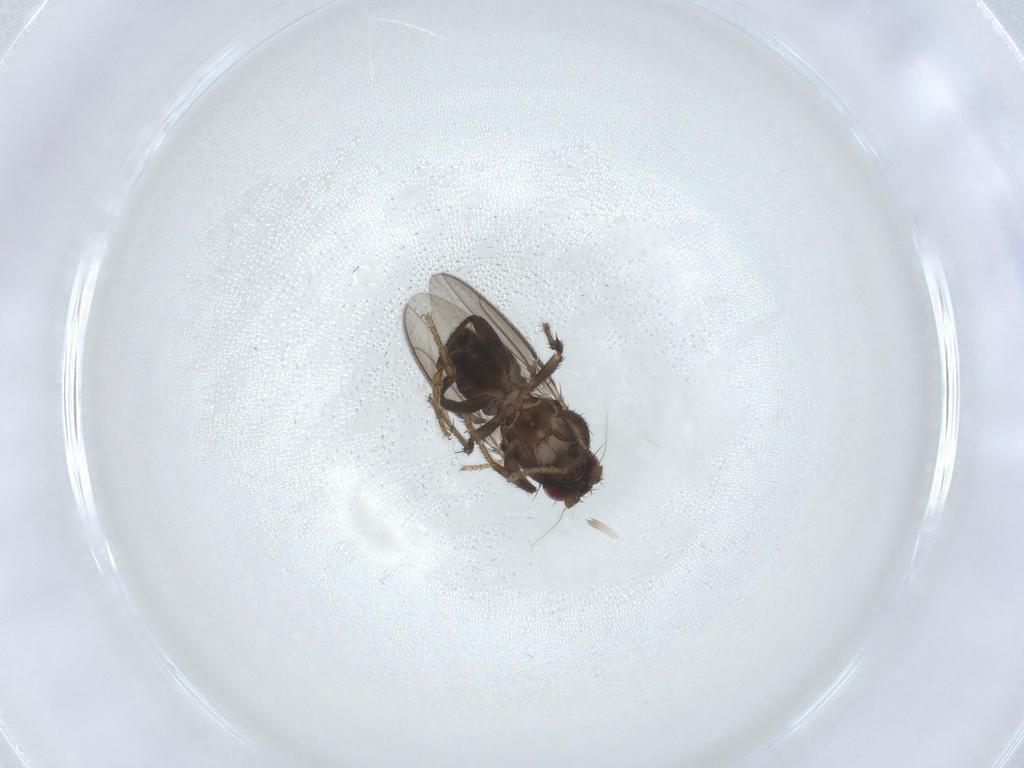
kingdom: Animalia
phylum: Arthropoda
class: Insecta
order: Diptera
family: Sphaeroceridae
